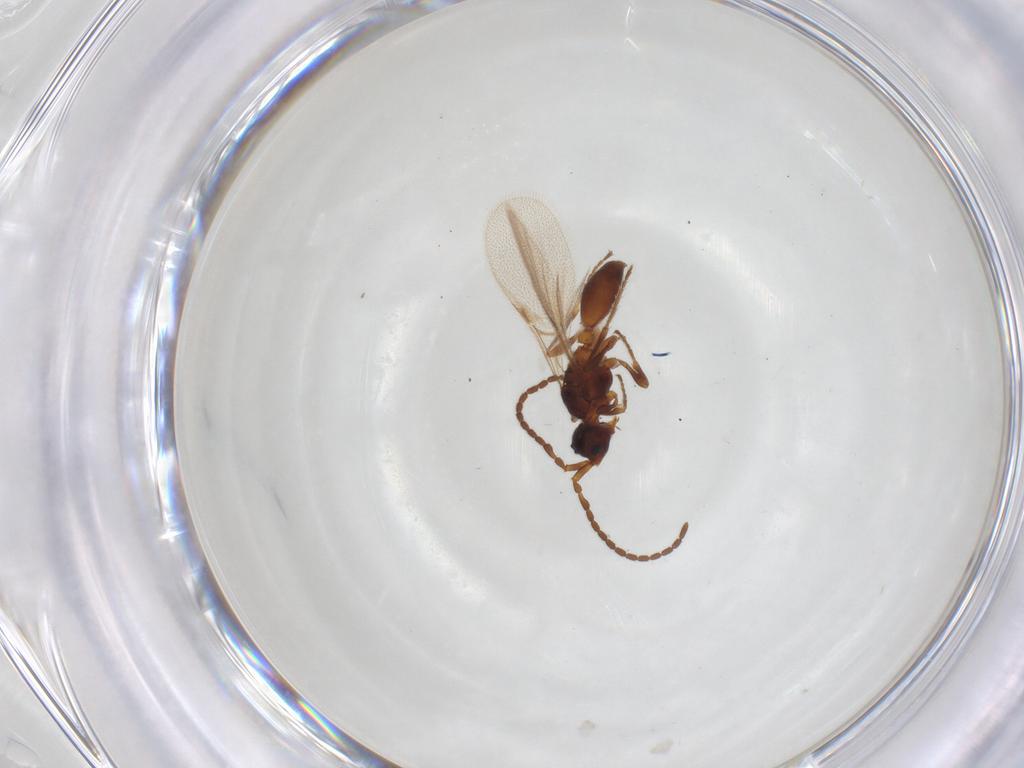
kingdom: Animalia
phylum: Arthropoda
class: Insecta
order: Hymenoptera
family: Diapriidae
